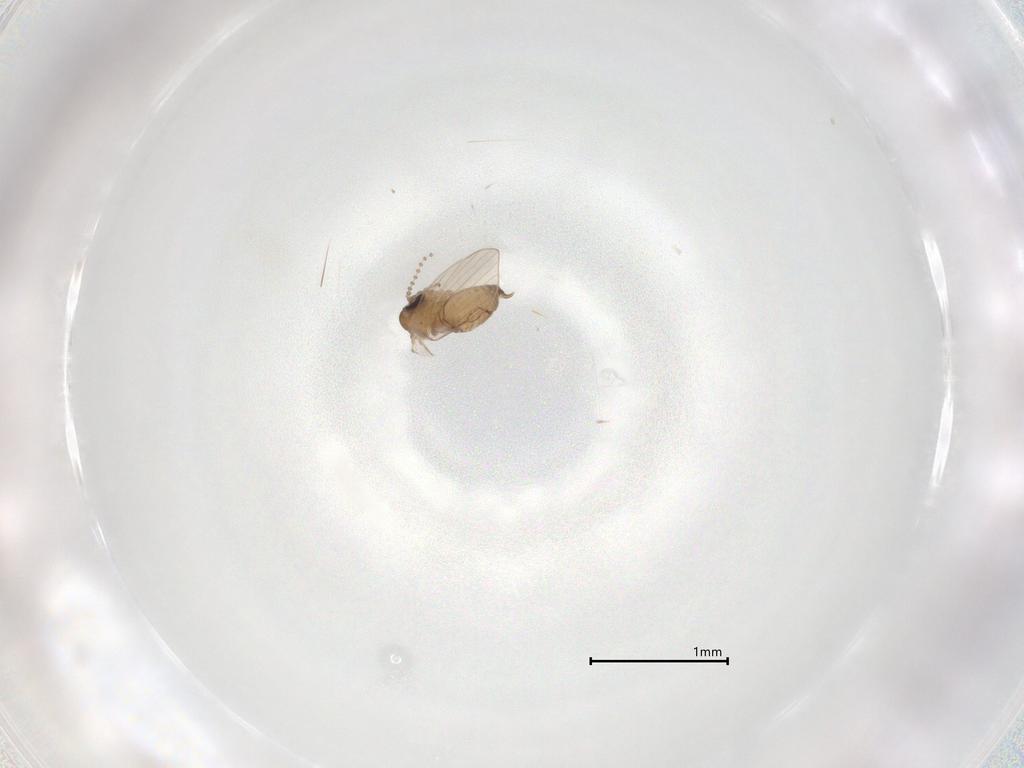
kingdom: Animalia
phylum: Arthropoda
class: Insecta
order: Diptera
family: Psychodidae
